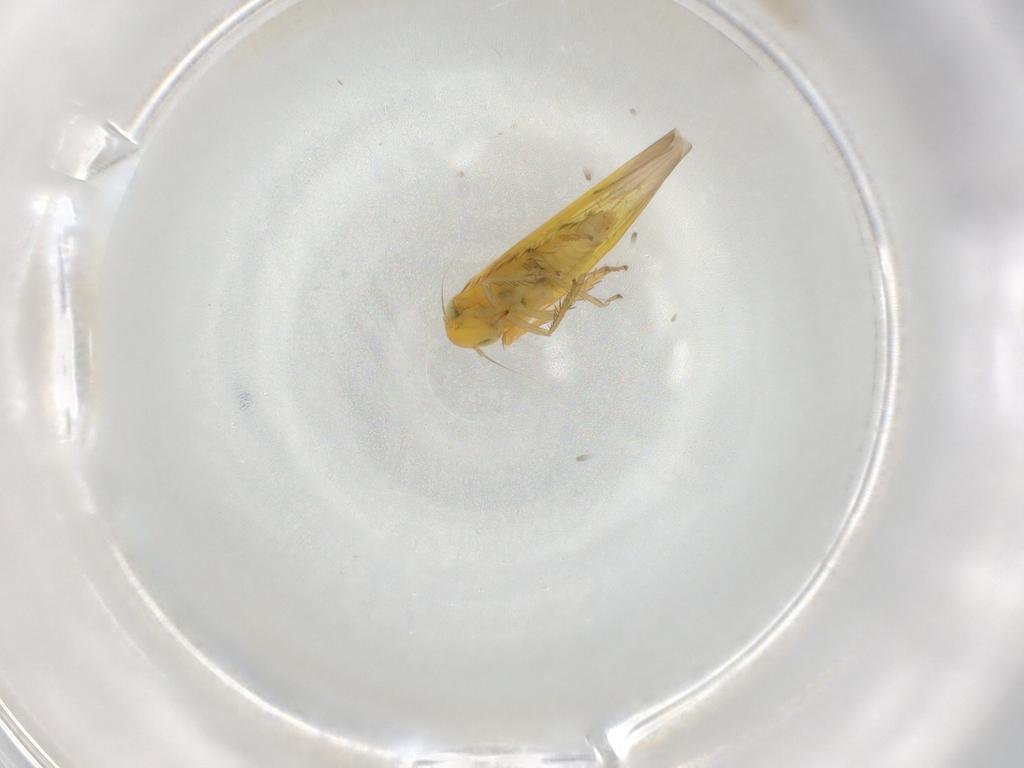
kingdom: Animalia
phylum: Arthropoda
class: Insecta
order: Hemiptera
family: Cicadellidae
